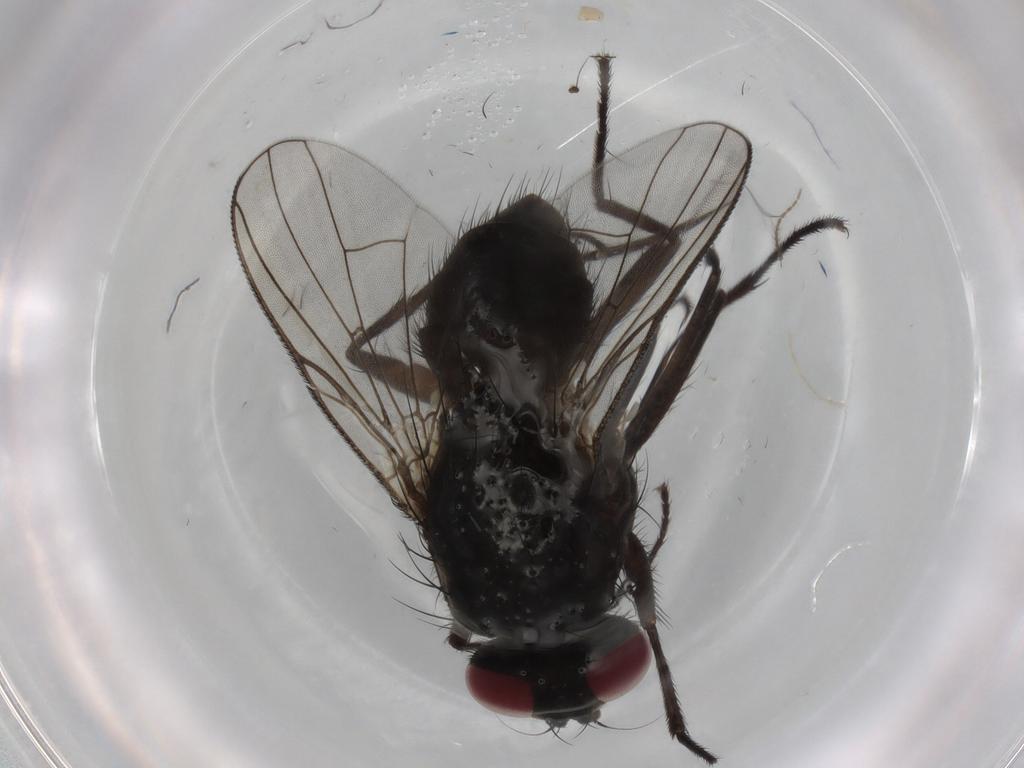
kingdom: Animalia
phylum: Arthropoda
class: Insecta
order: Diptera
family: Muscidae
